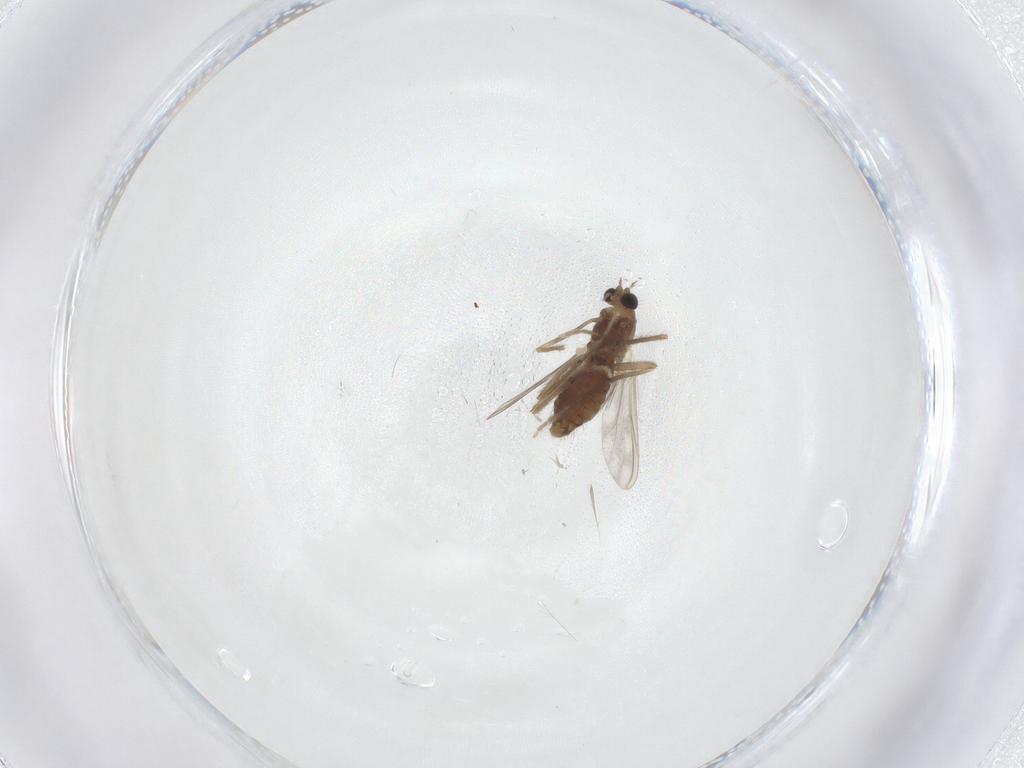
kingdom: Animalia
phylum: Arthropoda
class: Insecta
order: Diptera
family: Chironomidae
